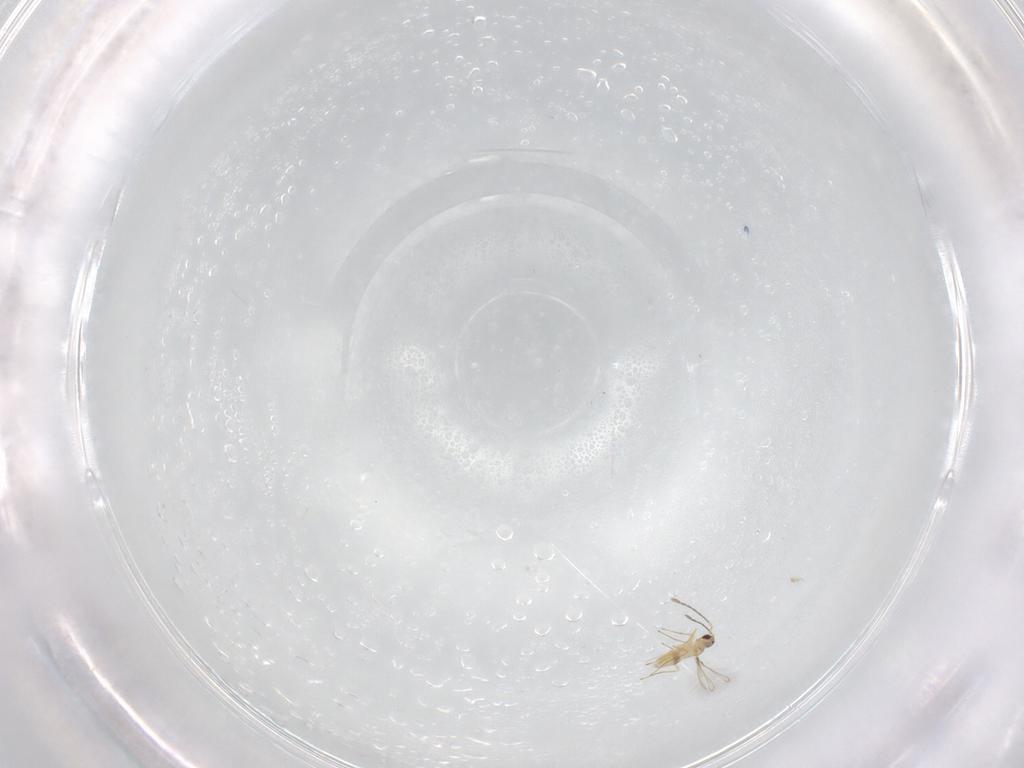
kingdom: Animalia
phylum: Arthropoda
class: Insecta
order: Hymenoptera
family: Mymaridae
